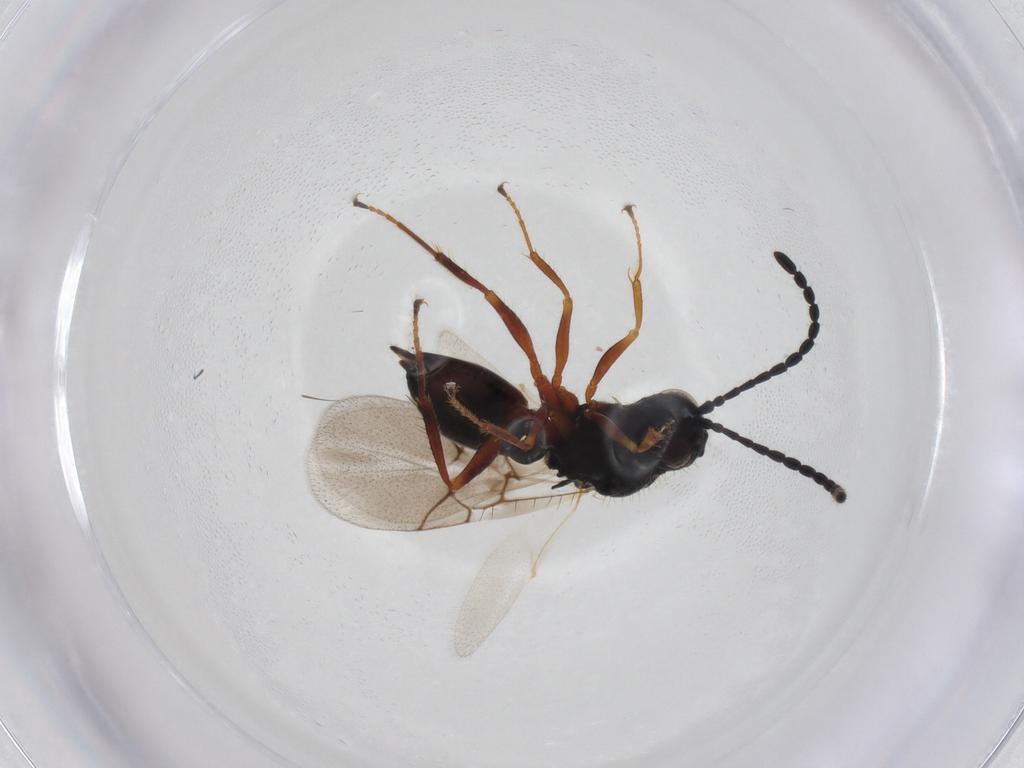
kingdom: Animalia
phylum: Arthropoda
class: Insecta
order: Hymenoptera
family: Figitidae
